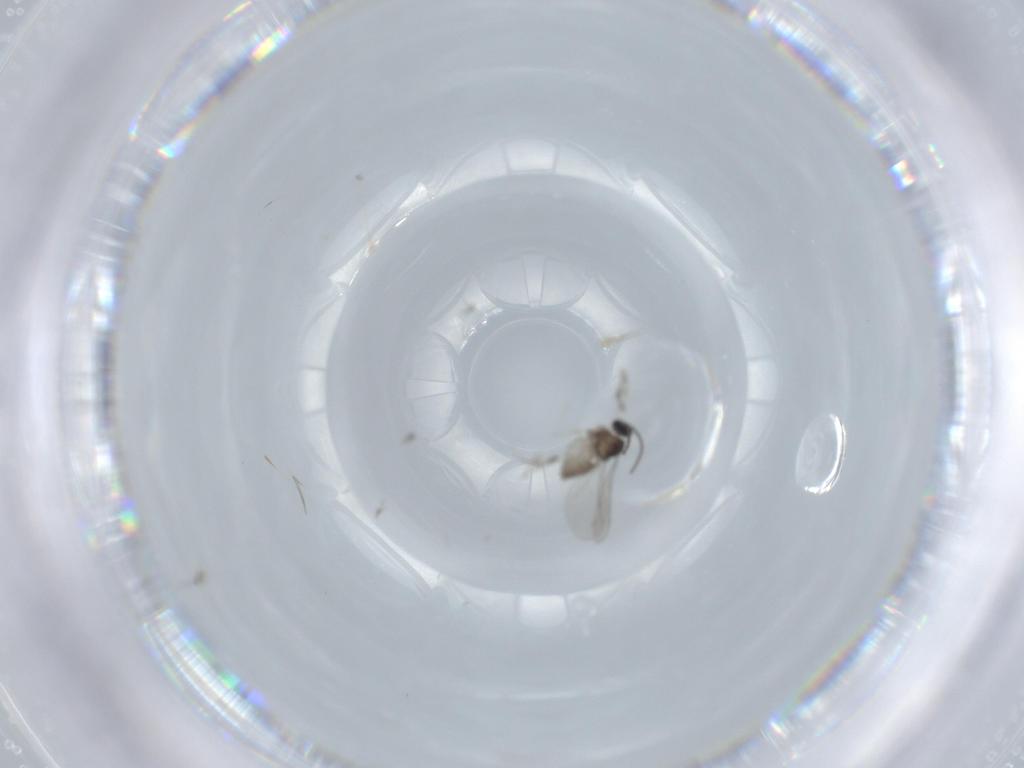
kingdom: Animalia
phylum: Arthropoda
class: Insecta
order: Diptera
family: Cecidomyiidae
